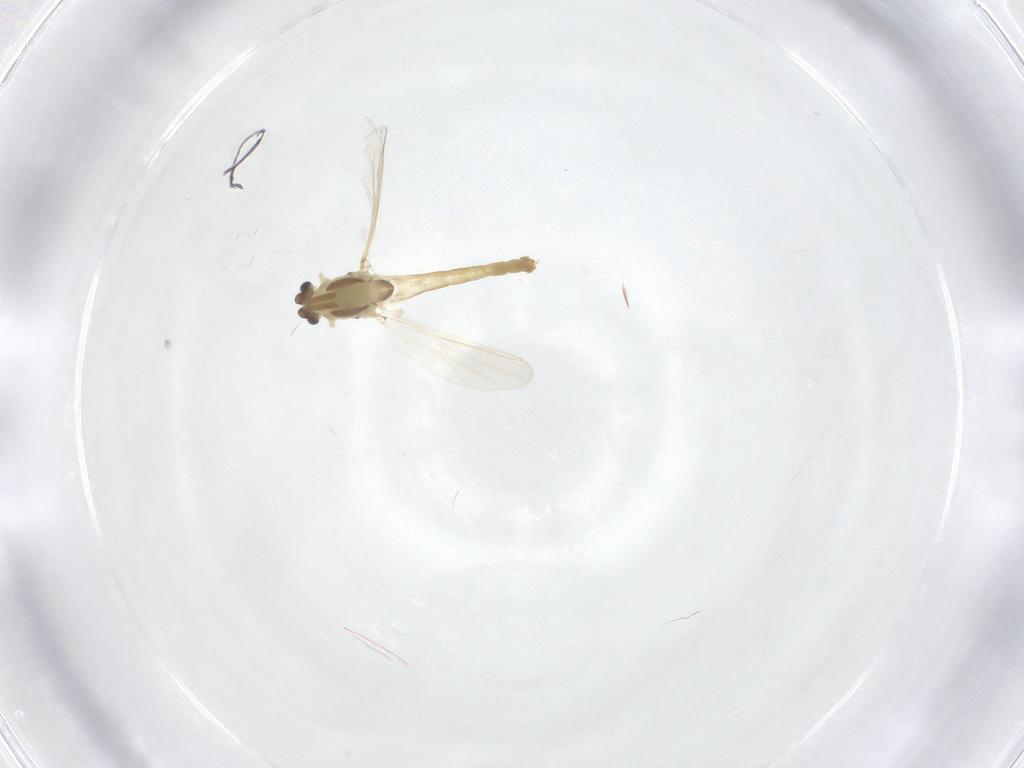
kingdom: Animalia
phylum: Arthropoda
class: Insecta
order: Diptera
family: Chironomidae
